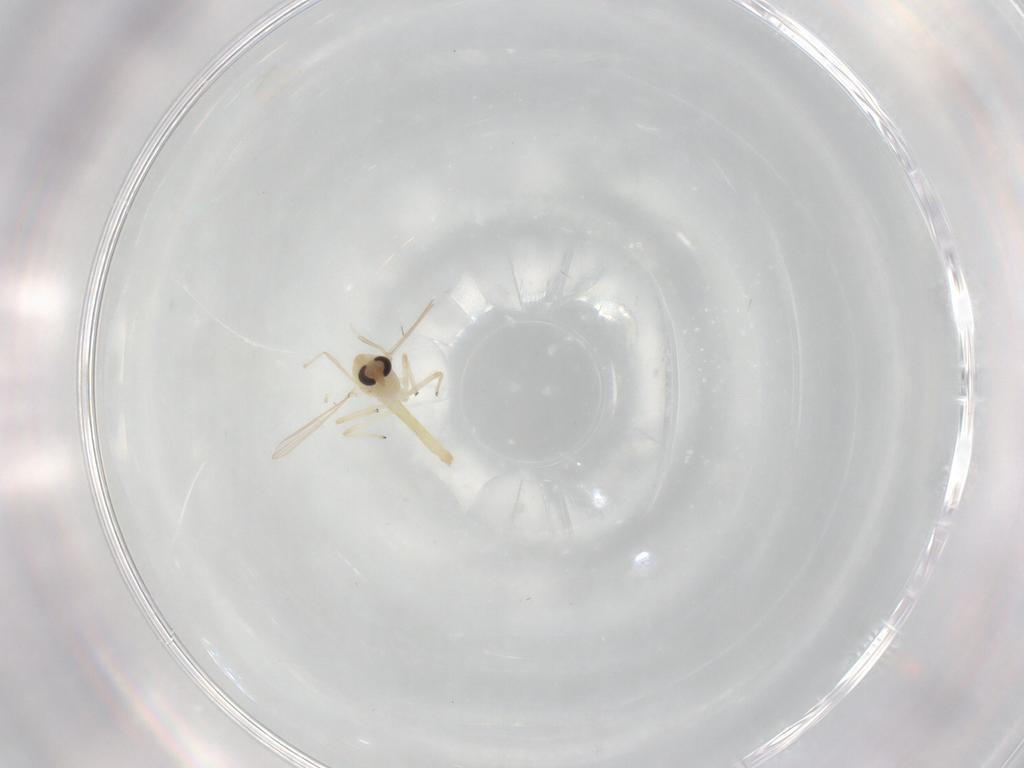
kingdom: Animalia
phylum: Arthropoda
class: Insecta
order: Diptera
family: Chironomidae
